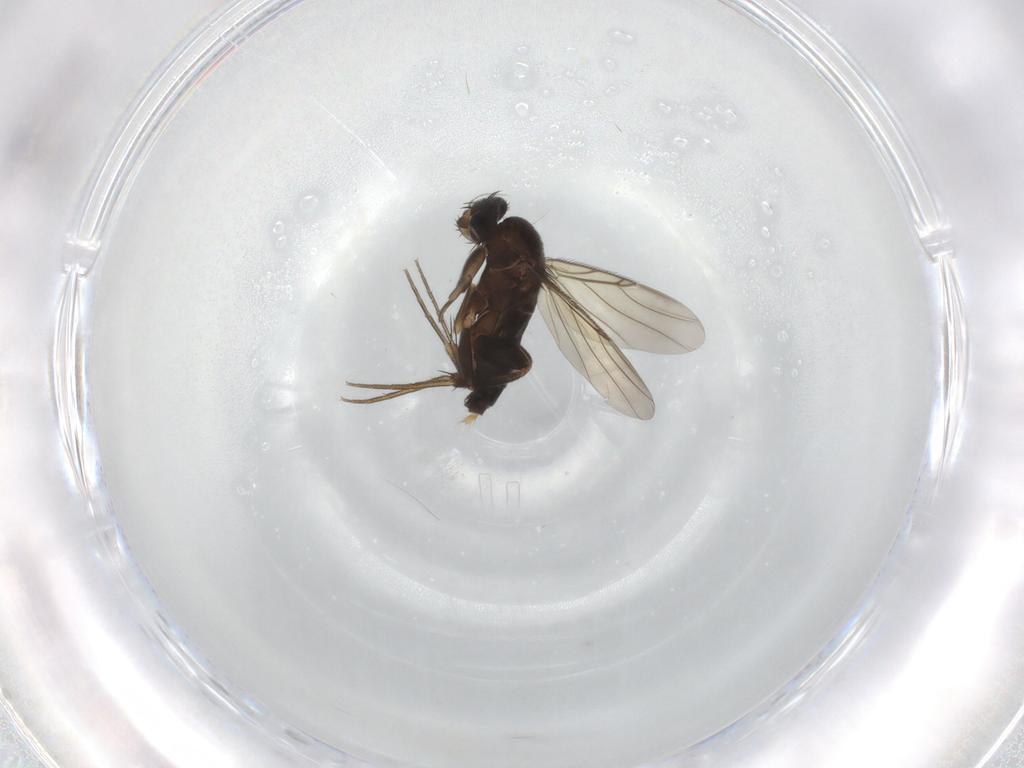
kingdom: Animalia
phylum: Arthropoda
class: Insecta
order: Diptera
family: Phoridae
